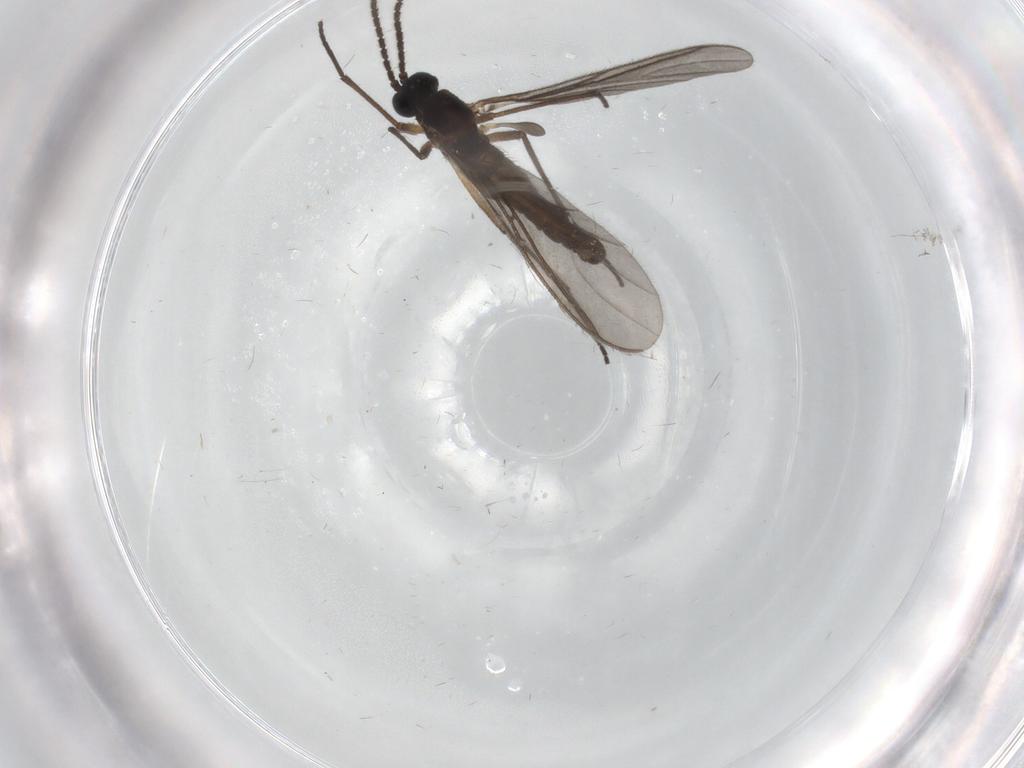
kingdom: Animalia
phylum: Arthropoda
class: Insecta
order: Diptera
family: Sciaridae
